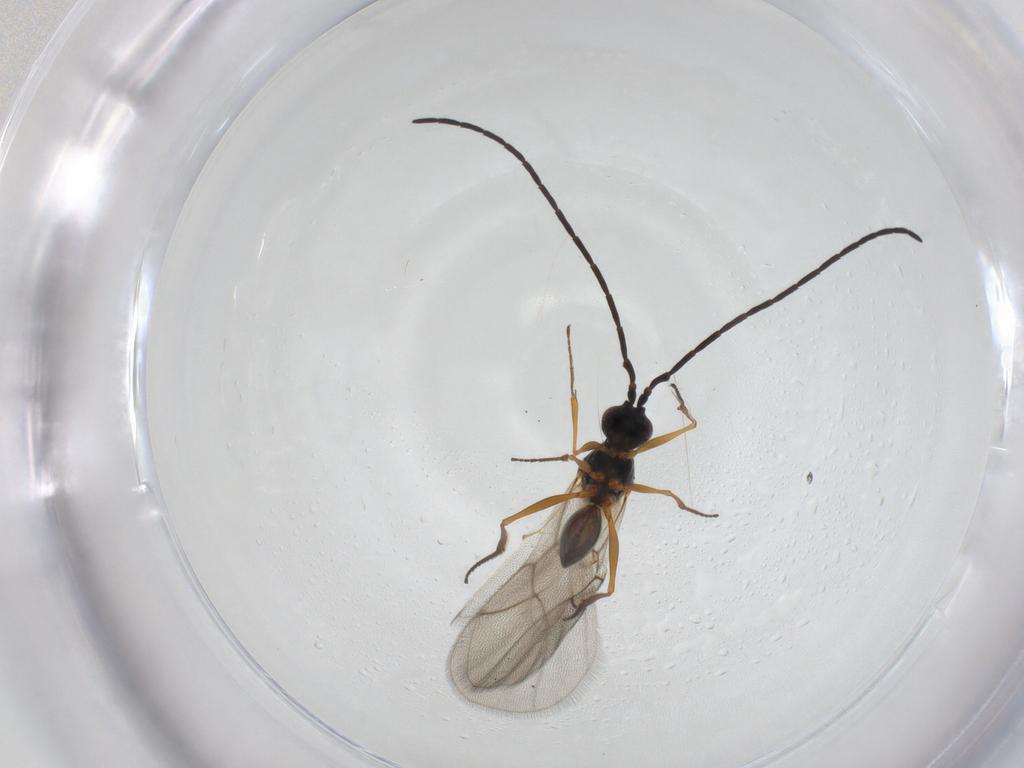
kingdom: Animalia
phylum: Arthropoda
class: Insecta
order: Hymenoptera
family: Figitidae
